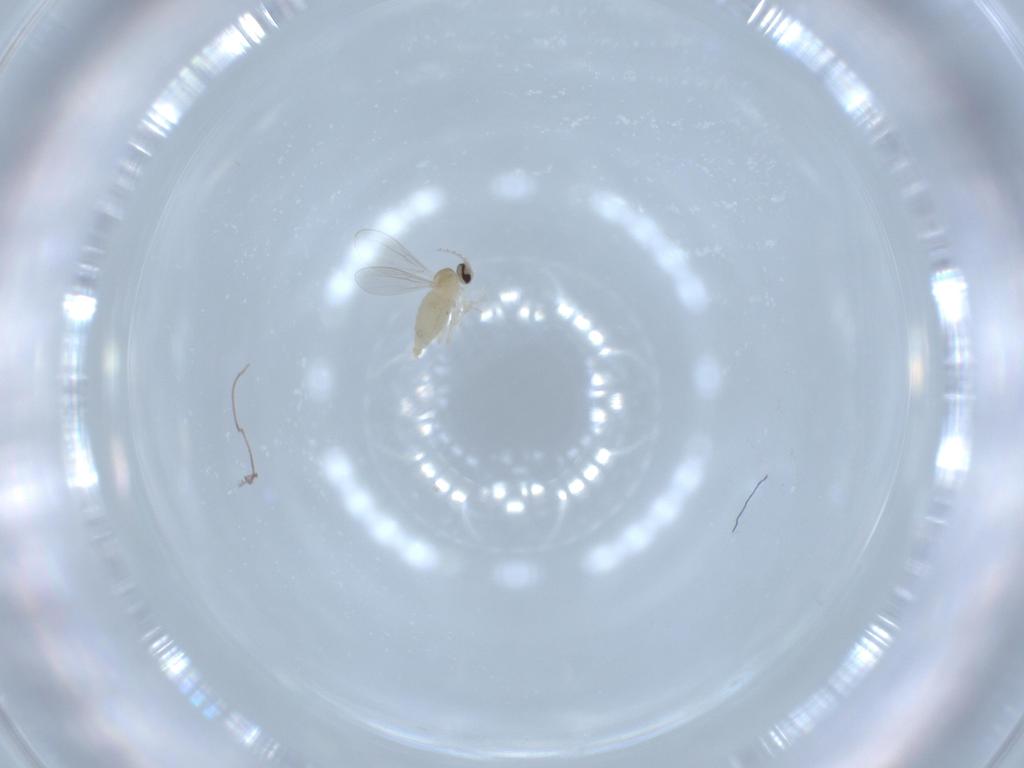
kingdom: Animalia
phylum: Arthropoda
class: Insecta
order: Diptera
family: Cecidomyiidae
